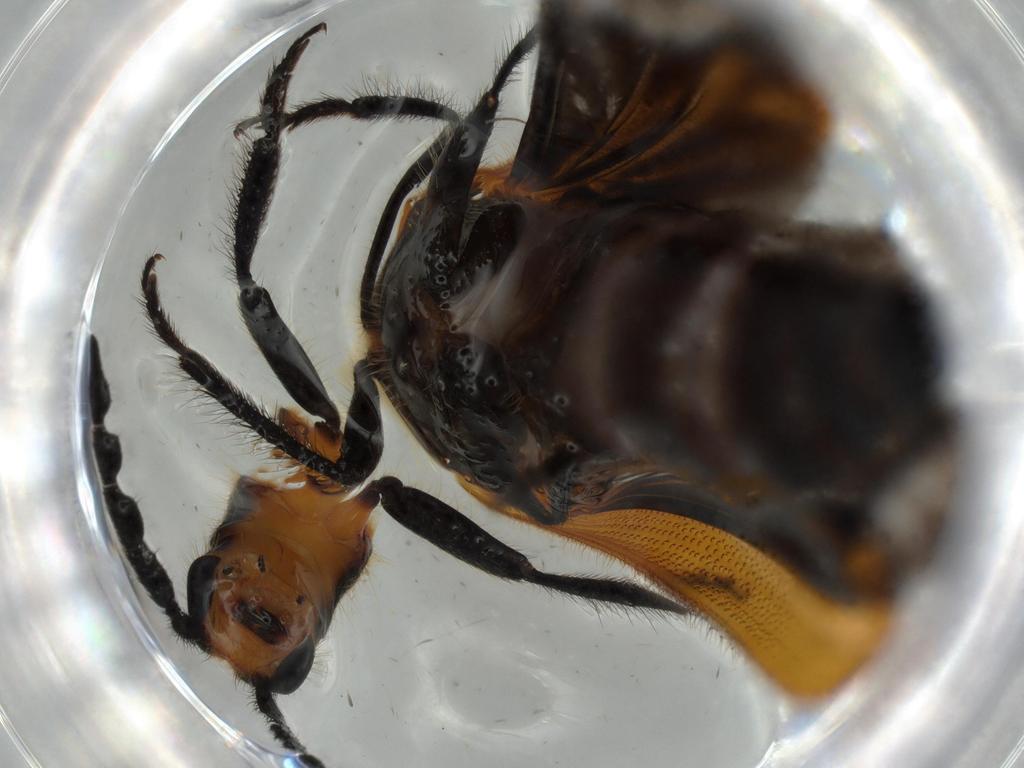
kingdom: Animalia
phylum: Arthropoda
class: Insecta
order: Coleoptera
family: Cleridae
